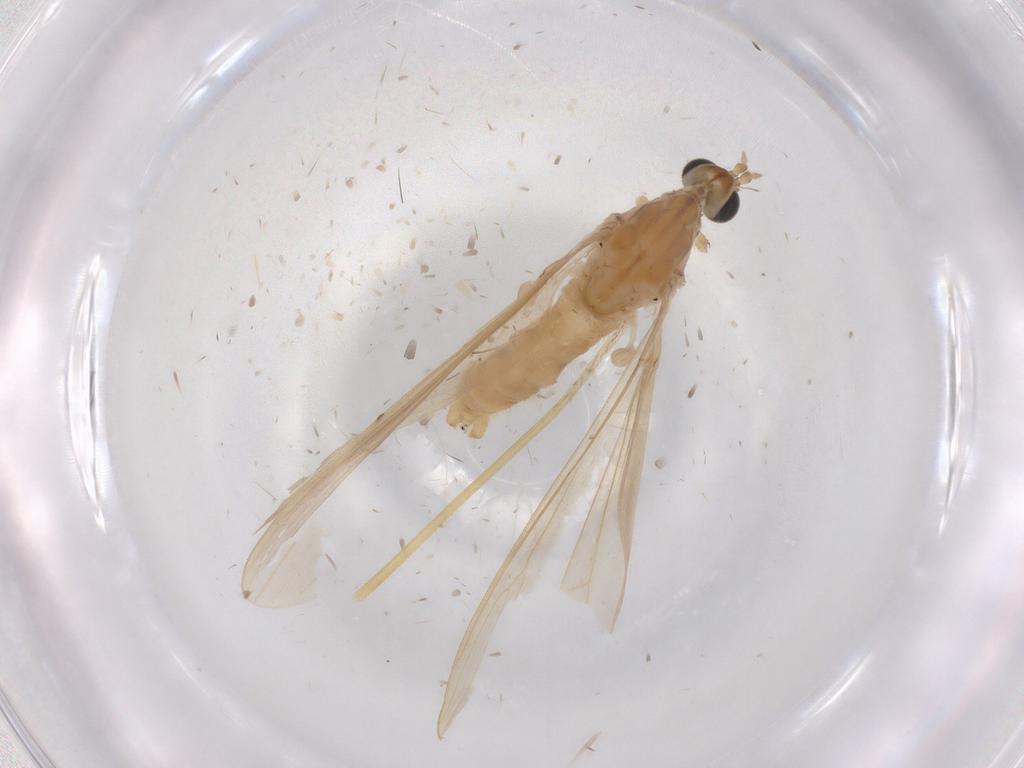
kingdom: Animalia
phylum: Arthropoda
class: Insecta
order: Diptera
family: Chloropidae
